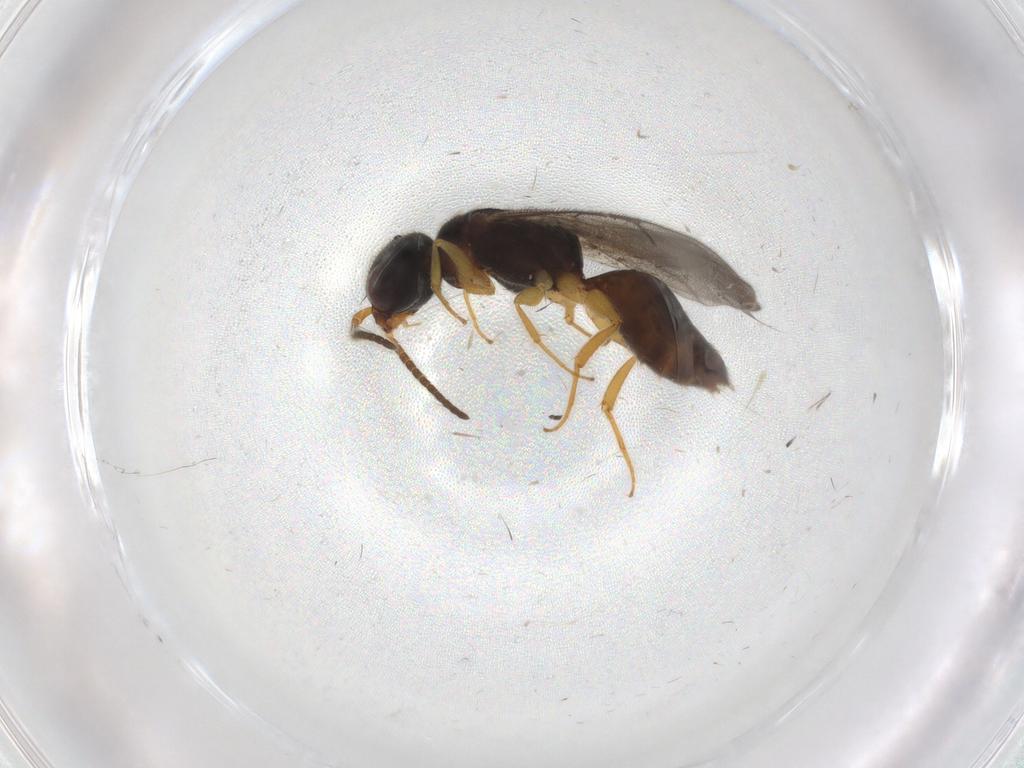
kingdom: Animalia
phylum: Arthropoda
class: Insecta
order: Hymenoptera
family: Bethylidae
